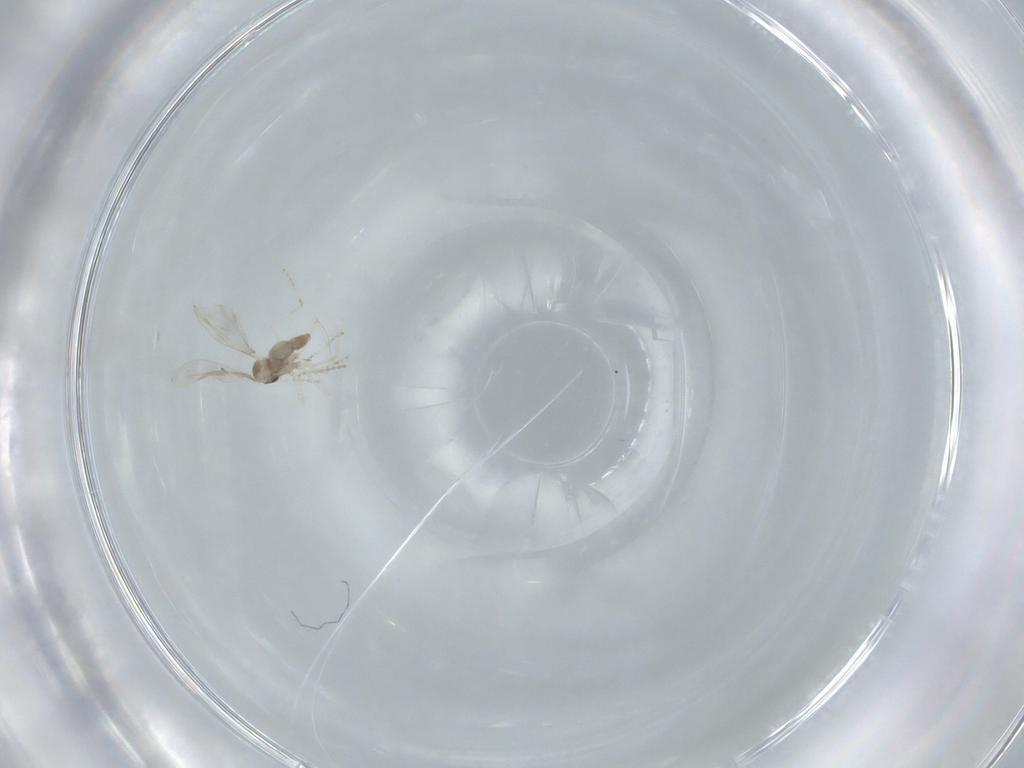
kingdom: Animalia
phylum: Arthropoda
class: Insecta
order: Diptera
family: Cecidomyiidae
